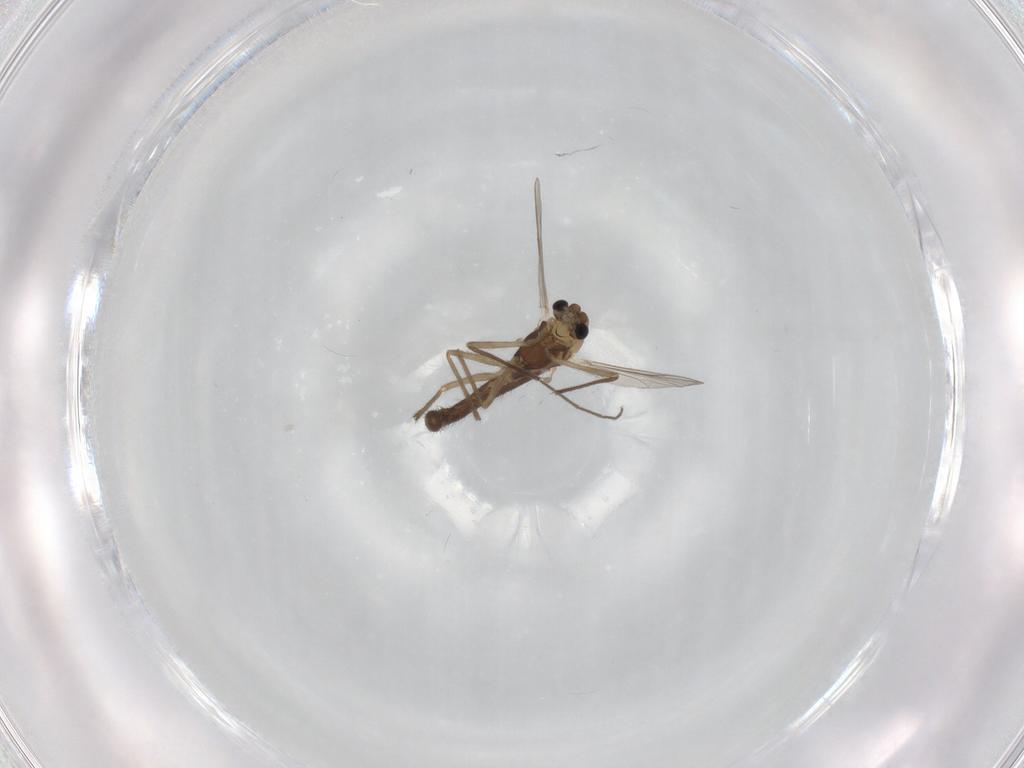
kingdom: Animalia
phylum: Arthropoda
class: Insecta
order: Diptera
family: Chironomidae
